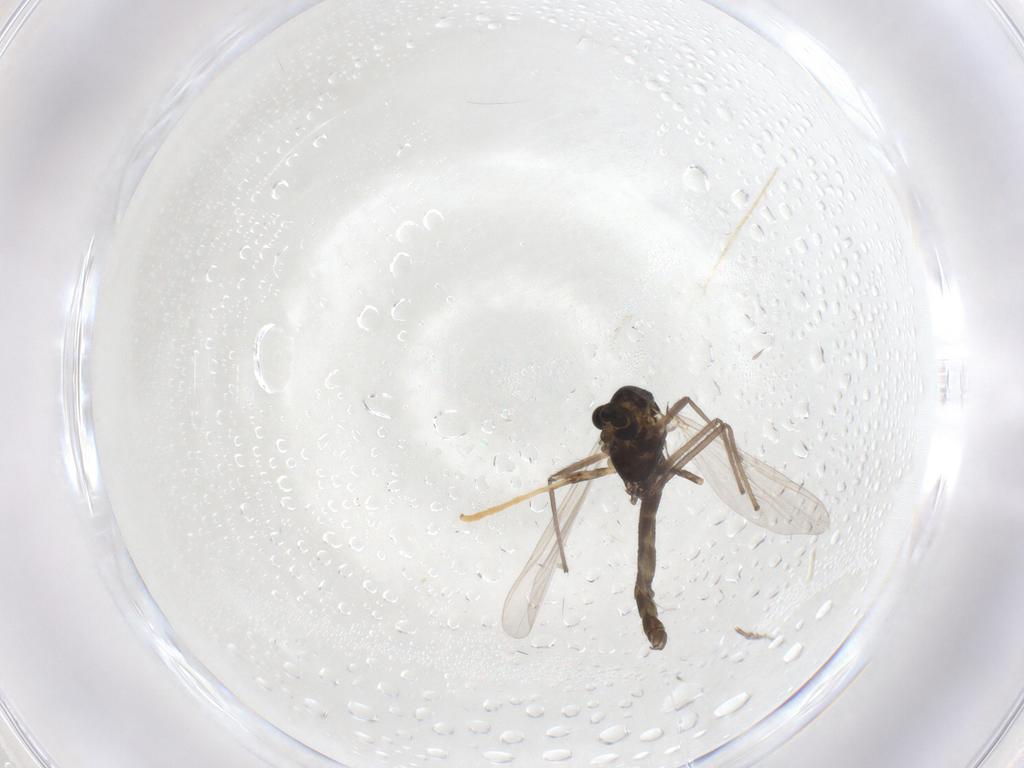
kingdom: Animalia
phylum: Arthropoda
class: Insecta
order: Diptera
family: Chironomidae
